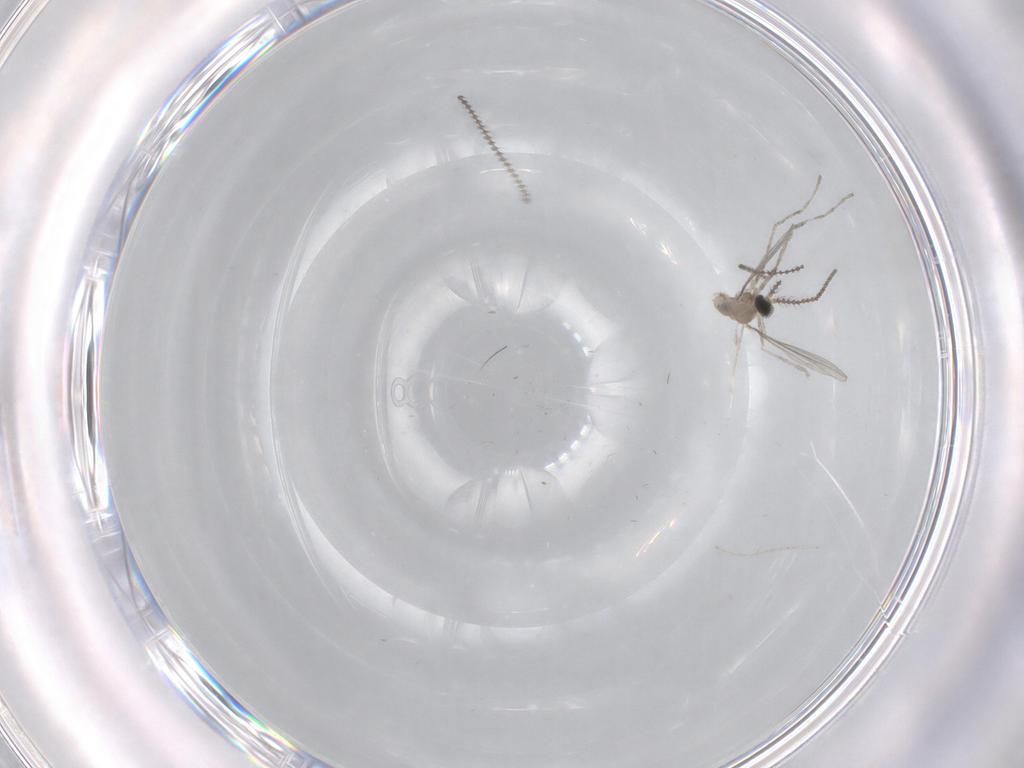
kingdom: Animalia
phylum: Arthropoda
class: Insecta
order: Diptera
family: Cecidomyiidae
